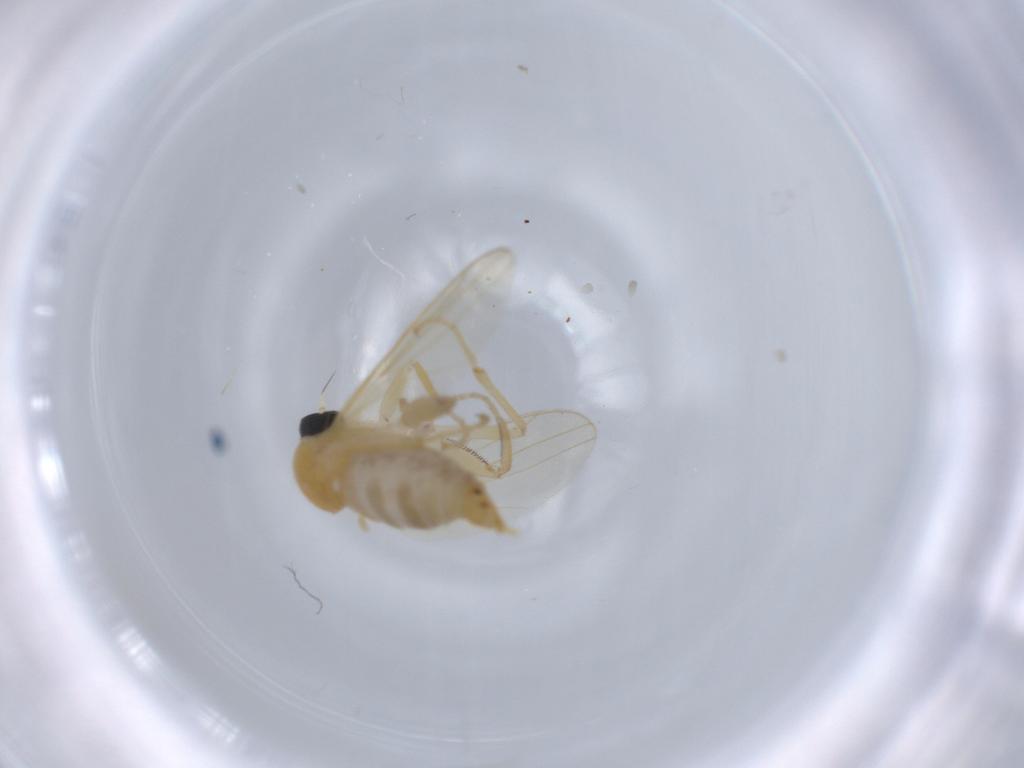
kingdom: Animalia
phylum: Arthropoda
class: Insecta
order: Diptera
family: Hybotidae
